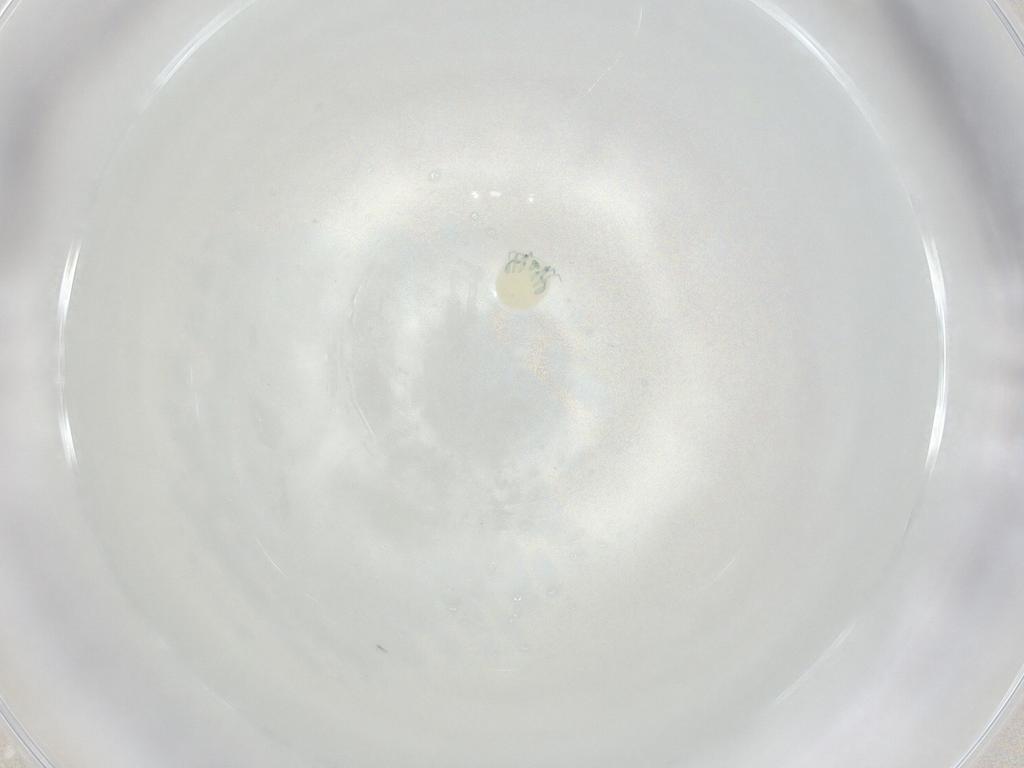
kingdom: Animalia
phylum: Arthropoda
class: Arachnida
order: Trombidiformes
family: Arrenuridae
